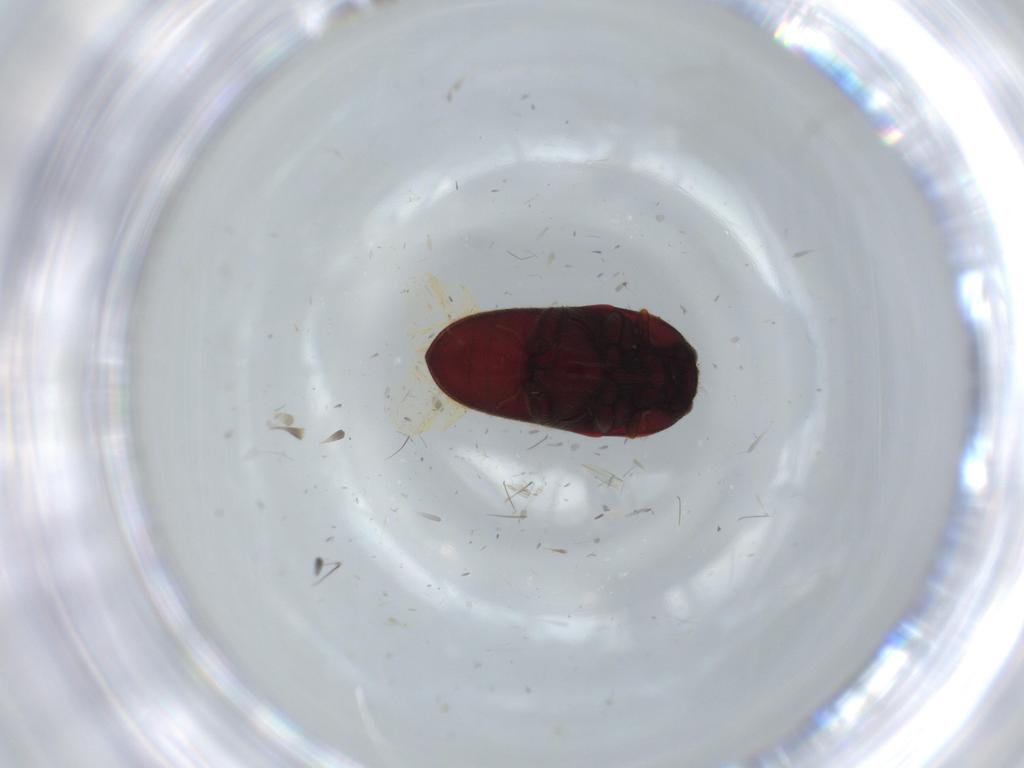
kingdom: Animalia
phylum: Arthropoda
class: Insecta
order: Coleoptera
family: Throscidae
